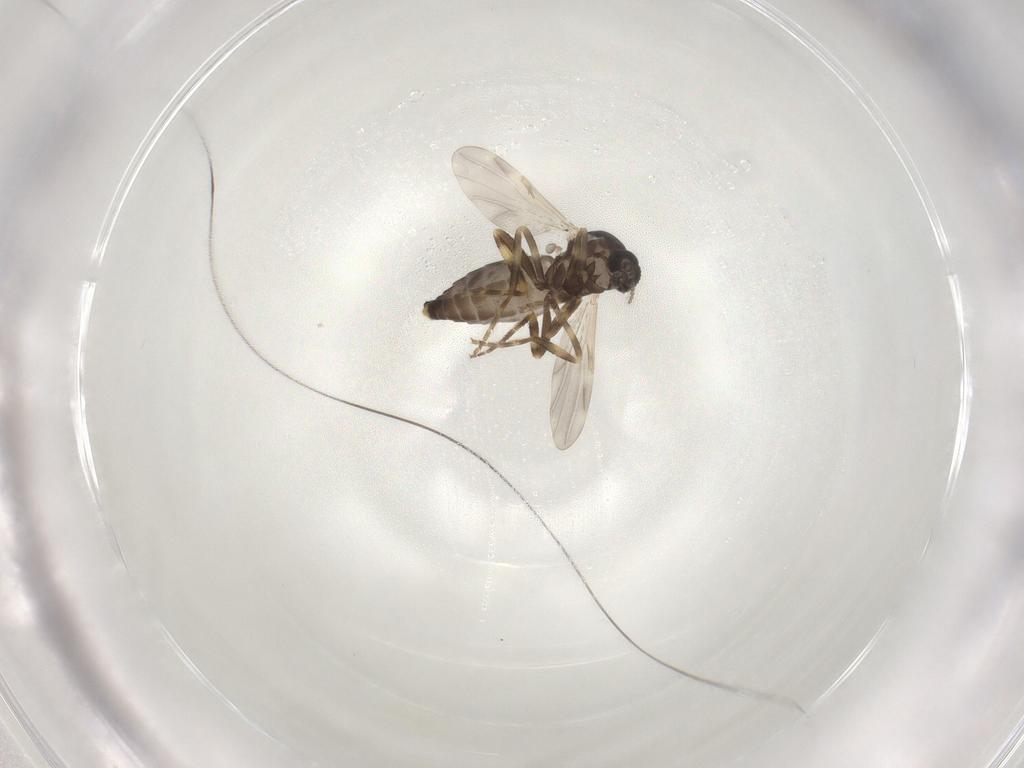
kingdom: Animalia
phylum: Arthropoda
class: Insecta
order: Diptera
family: Ceratopogonidae
